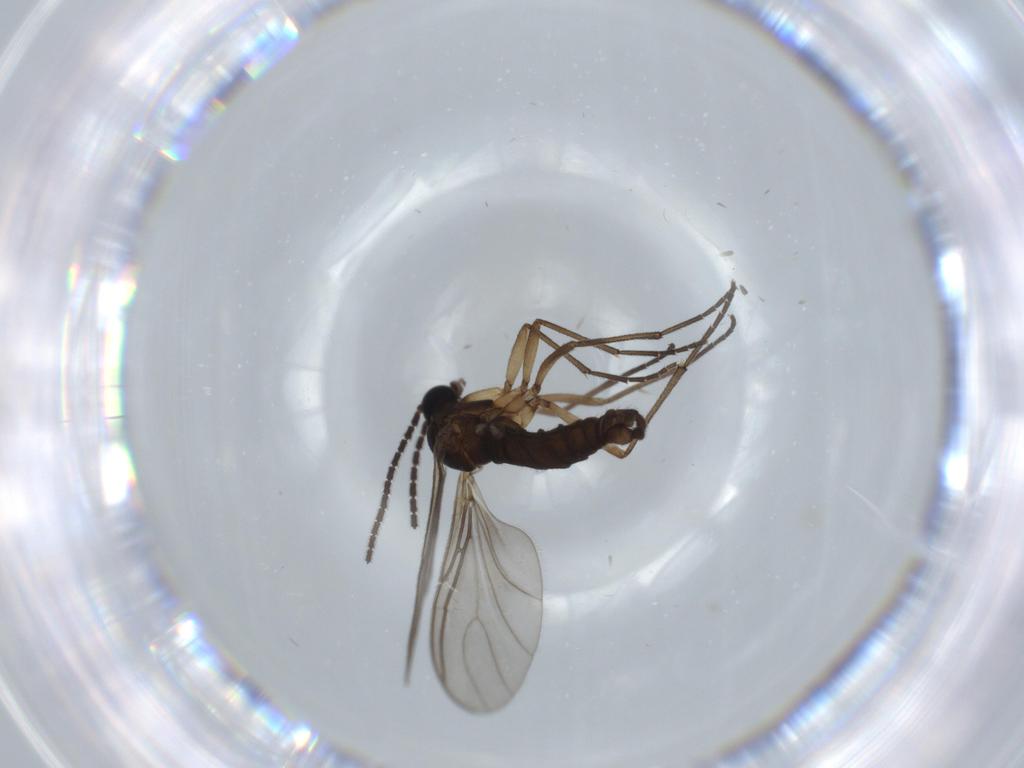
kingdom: Animalia
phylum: Arthropoda
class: Insecta
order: Diptera
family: Sciaridae
